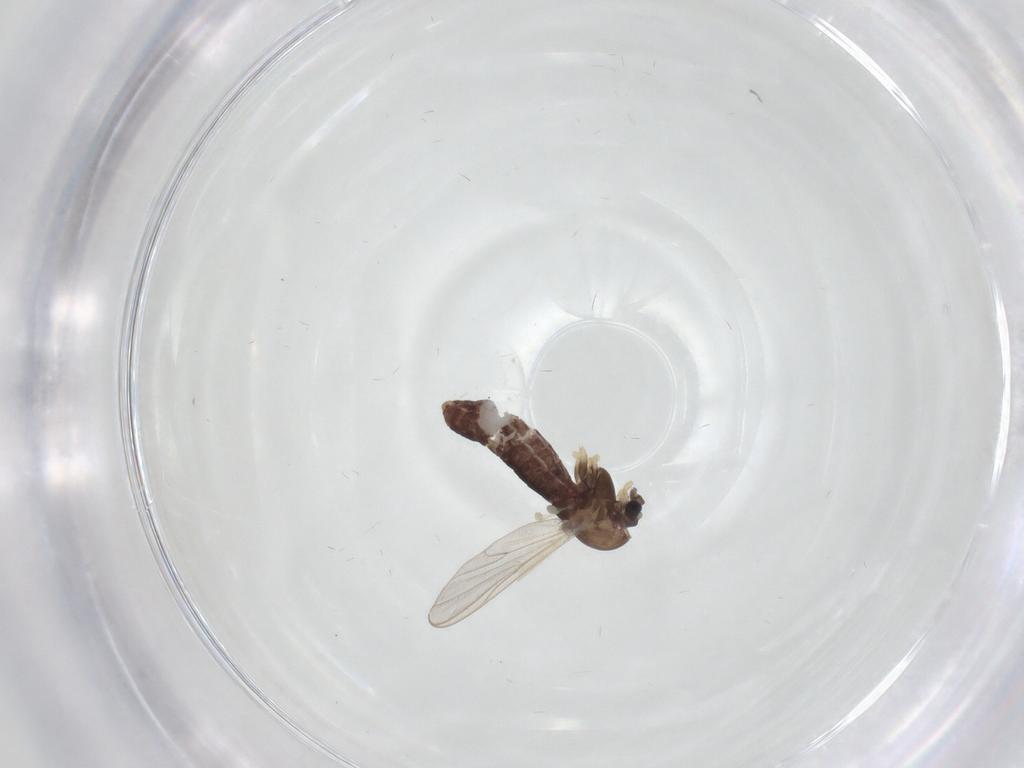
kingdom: Animalia
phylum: Arthropoda
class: Insecta
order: Diptera
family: Chironomidae
